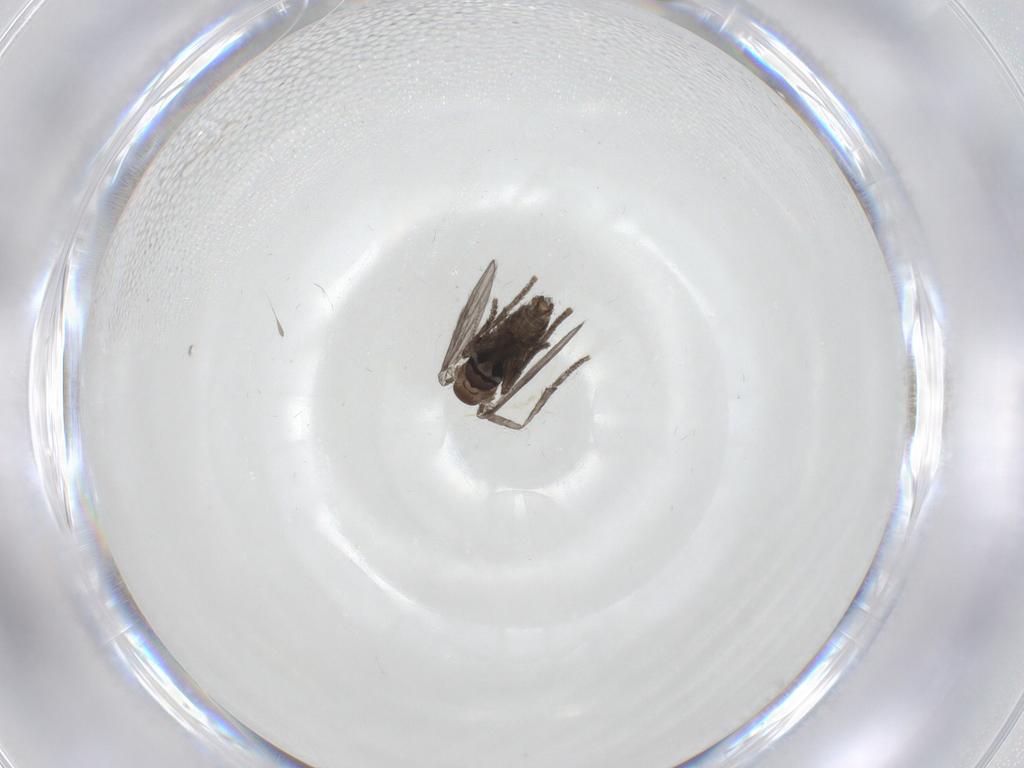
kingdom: Animalia
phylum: Arthropoda
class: Insecta
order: Diptera
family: Psychodidae
